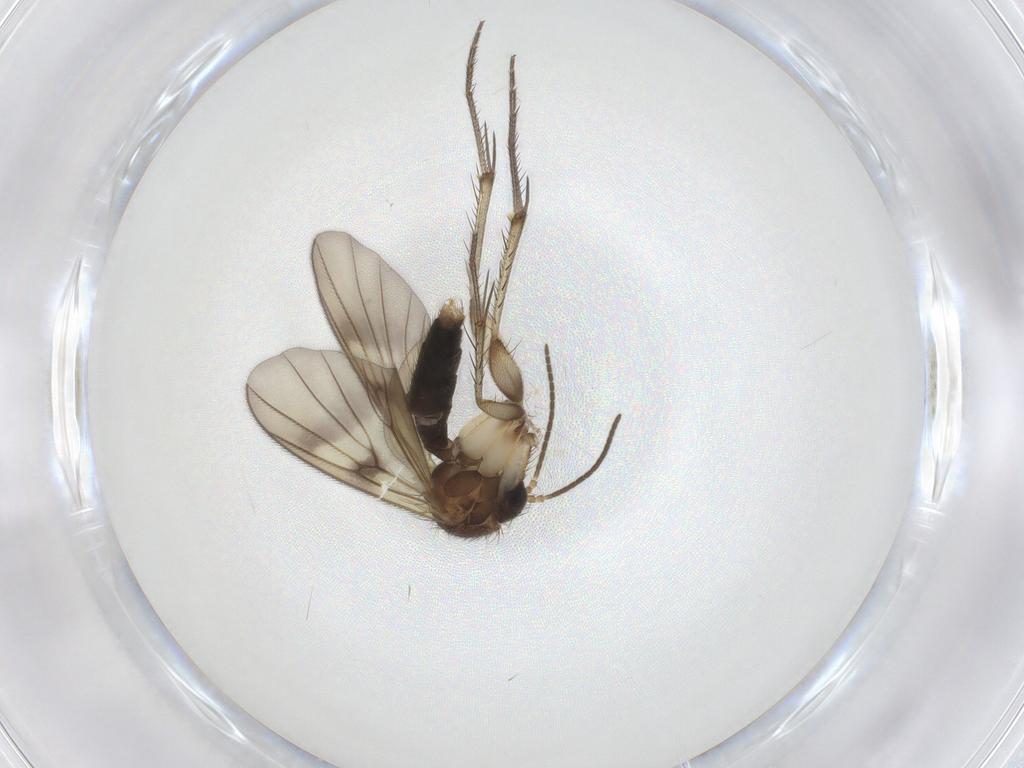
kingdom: Animalia
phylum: Arthropoda
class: Insecta
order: Diptera
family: Mycetophilidae
